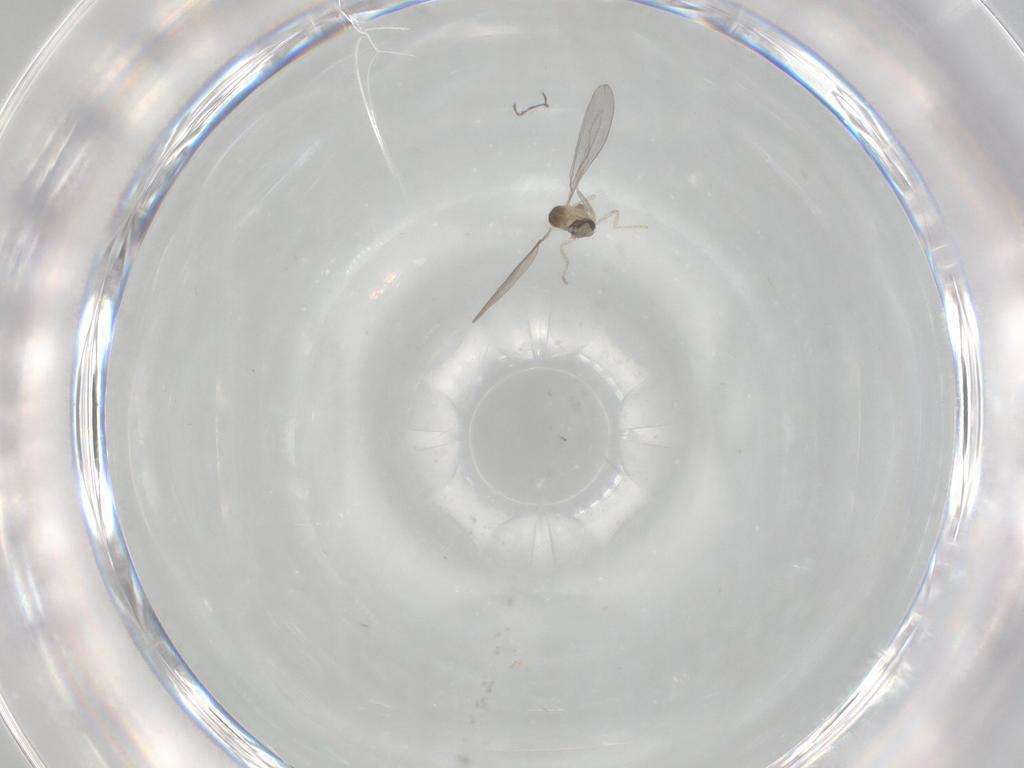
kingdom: Animalia
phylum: Arthropoda
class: Insecta
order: Diptera
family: Cecidomyiidae
